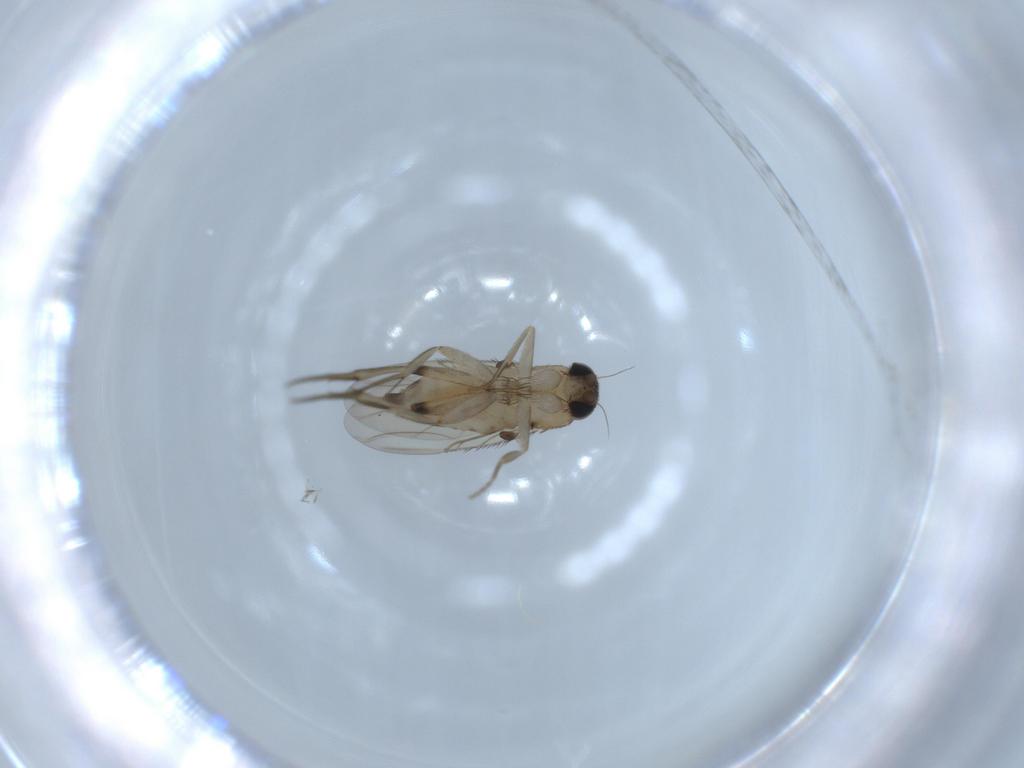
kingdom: Animalia
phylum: Arthropoda
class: Insecta
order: Diptera
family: Phoridae
